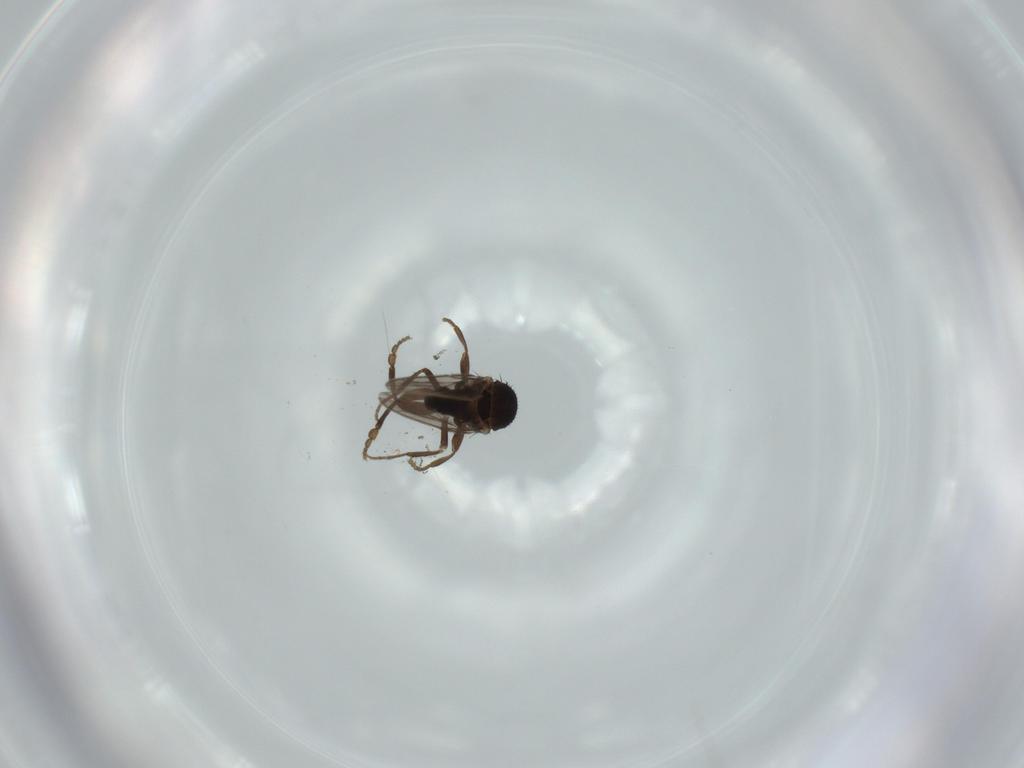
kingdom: Animalia
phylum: Arthropoda
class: Insecta
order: Diptera
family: Sphaeroceridae
